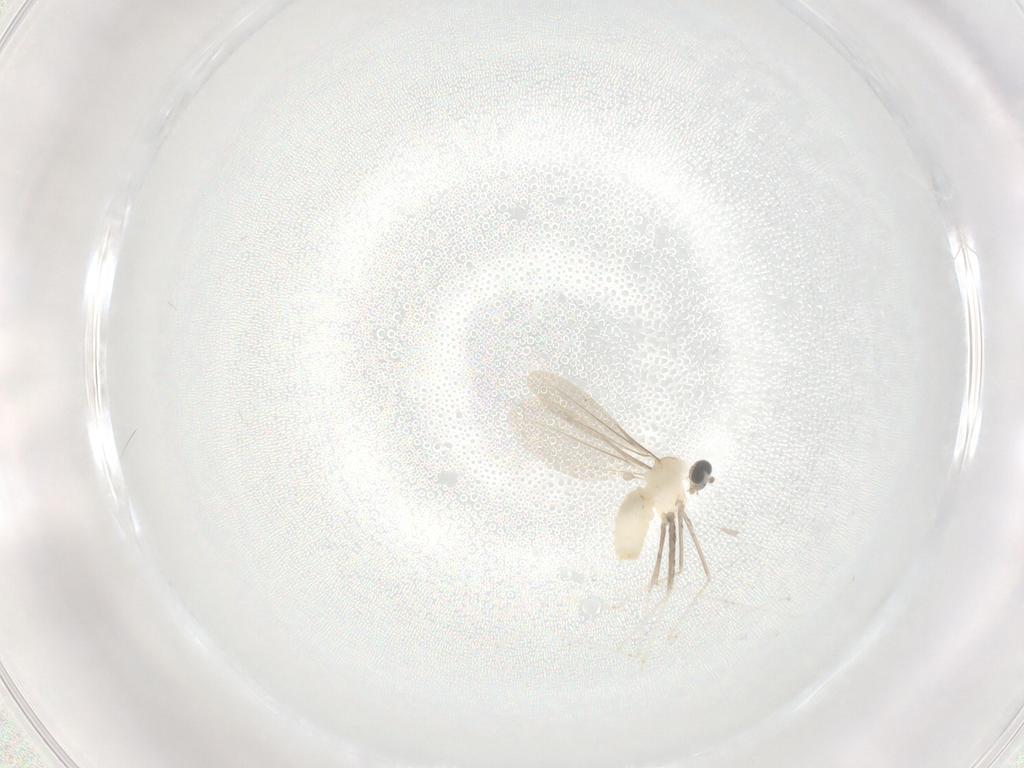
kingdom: Animalia
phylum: Arthropoda
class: Insecta
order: Diptera
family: Cecidomyiidae
